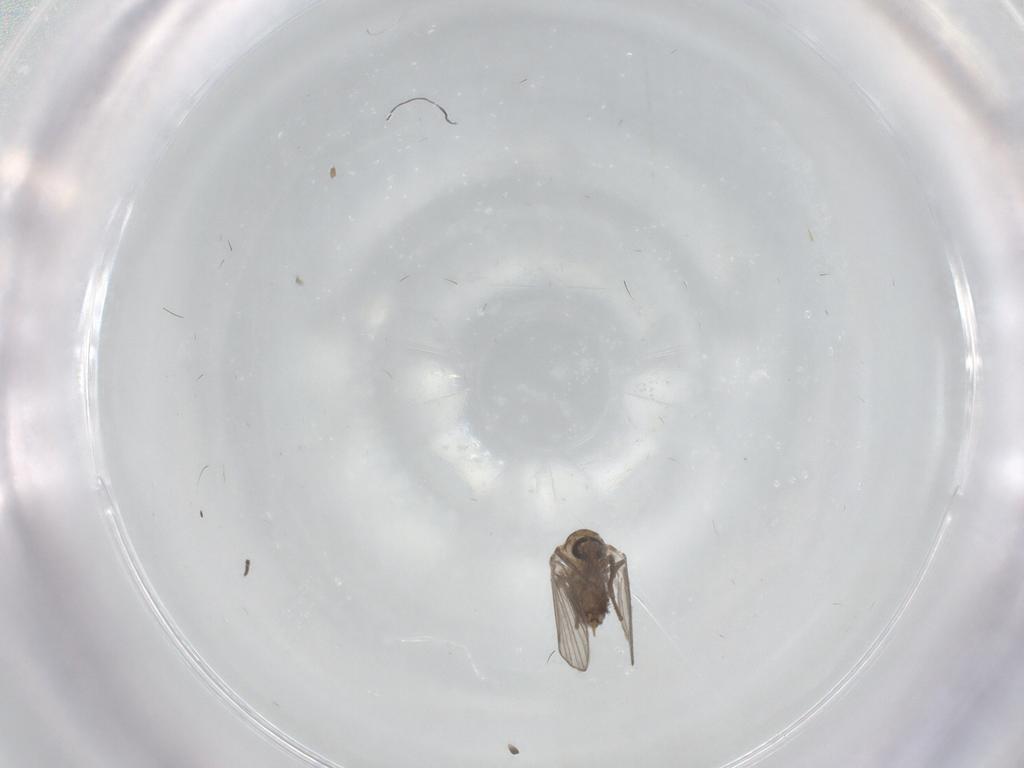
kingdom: Animalia
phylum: Arthropoda
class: Insecta
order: Diptera
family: Psychodidae
